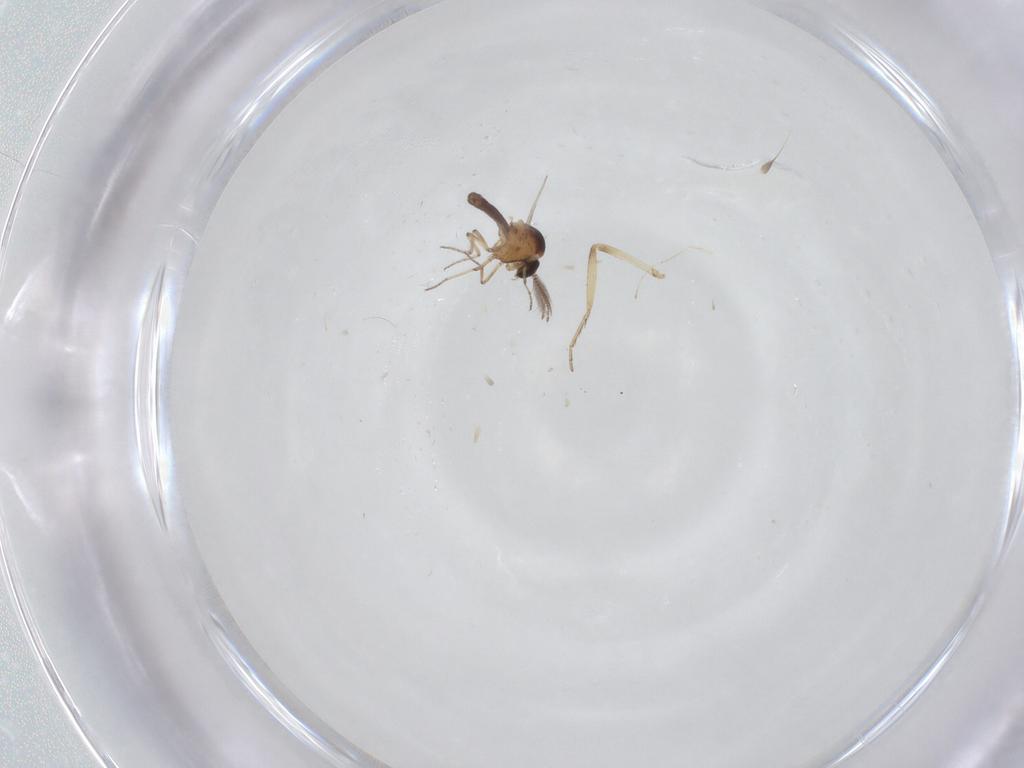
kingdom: Animalia
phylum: Arthropoda
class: Insecta
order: Diptera
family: Ceratopogonidae
